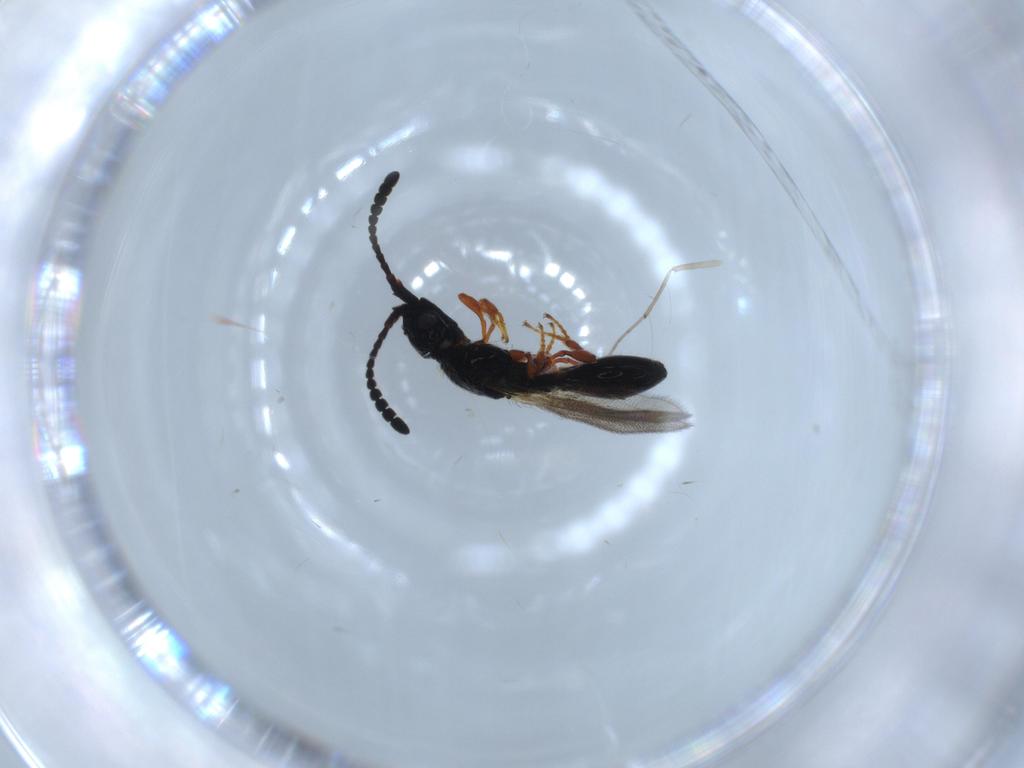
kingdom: Animalia
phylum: Arthropoda
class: Insecta
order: Hymenoptera
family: Diapriidae
